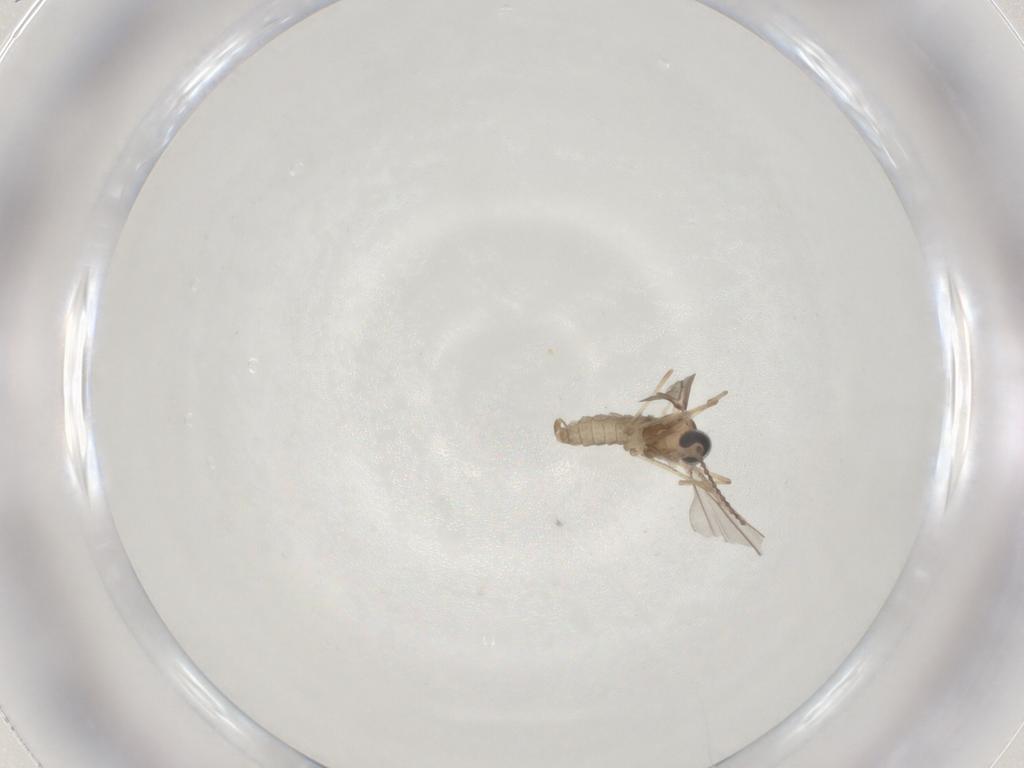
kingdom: Animalia
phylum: Arthropoda
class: Insecta
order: Diptera
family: Cecidomyiidae
